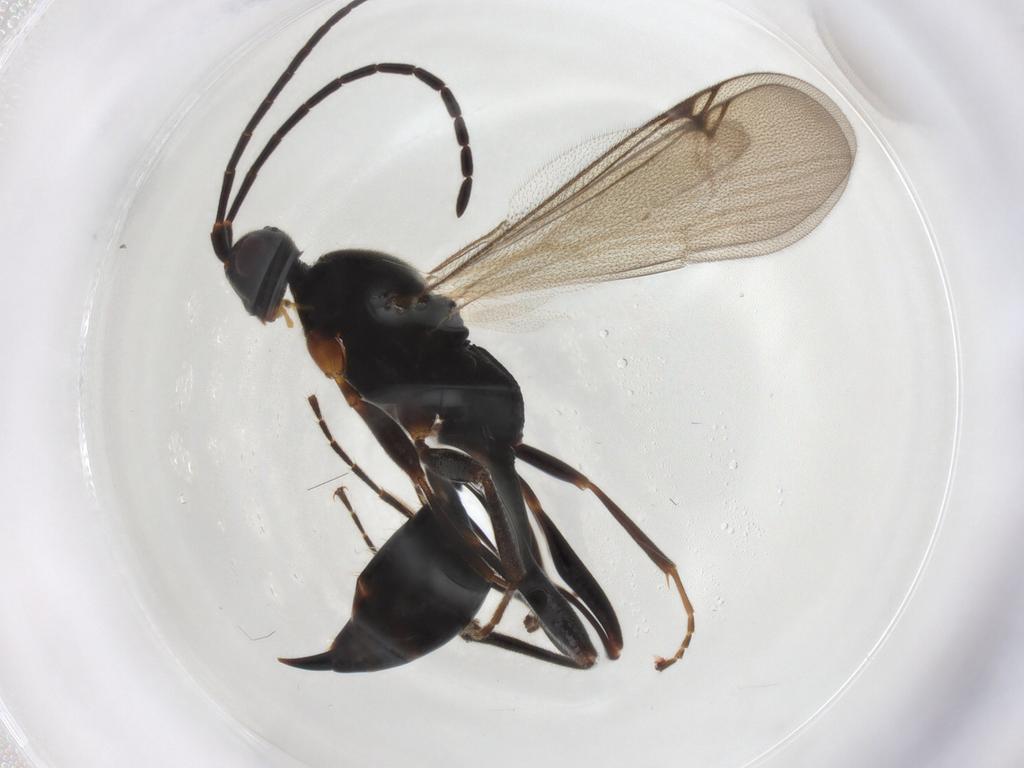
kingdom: Animalia
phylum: Arthropoda
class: Insecta
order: Hymenoptera
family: Proctotrupidae
